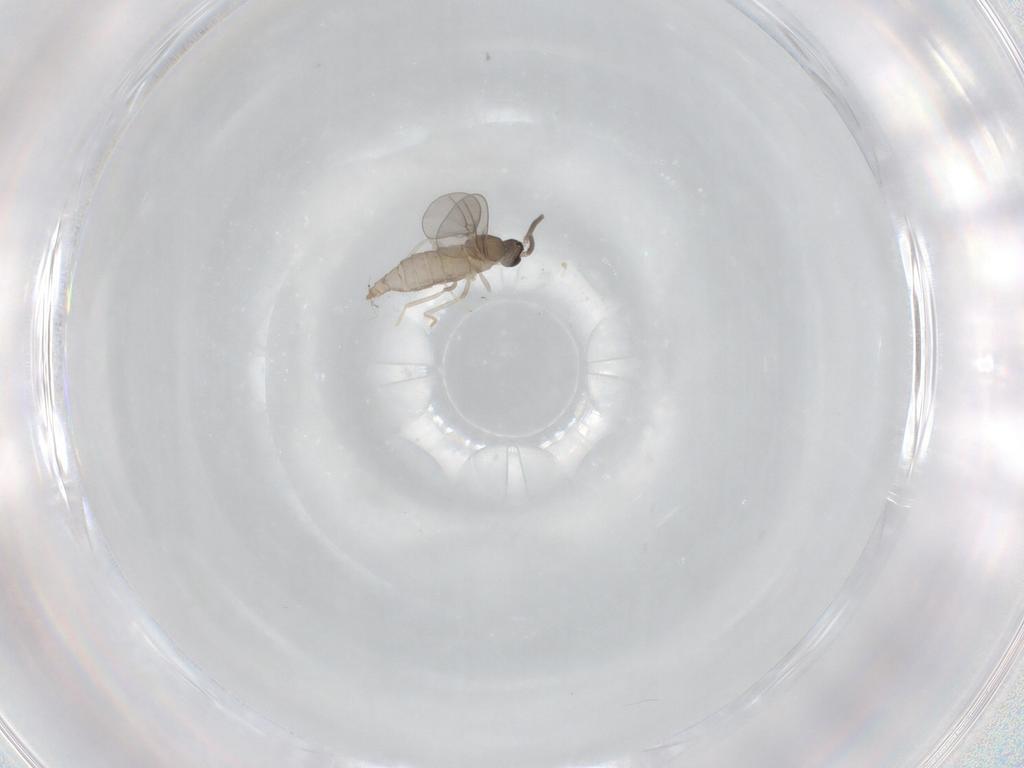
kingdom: Animalia
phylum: Arthropoda
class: Insecta
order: Diptera
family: Cecidomyiidae
